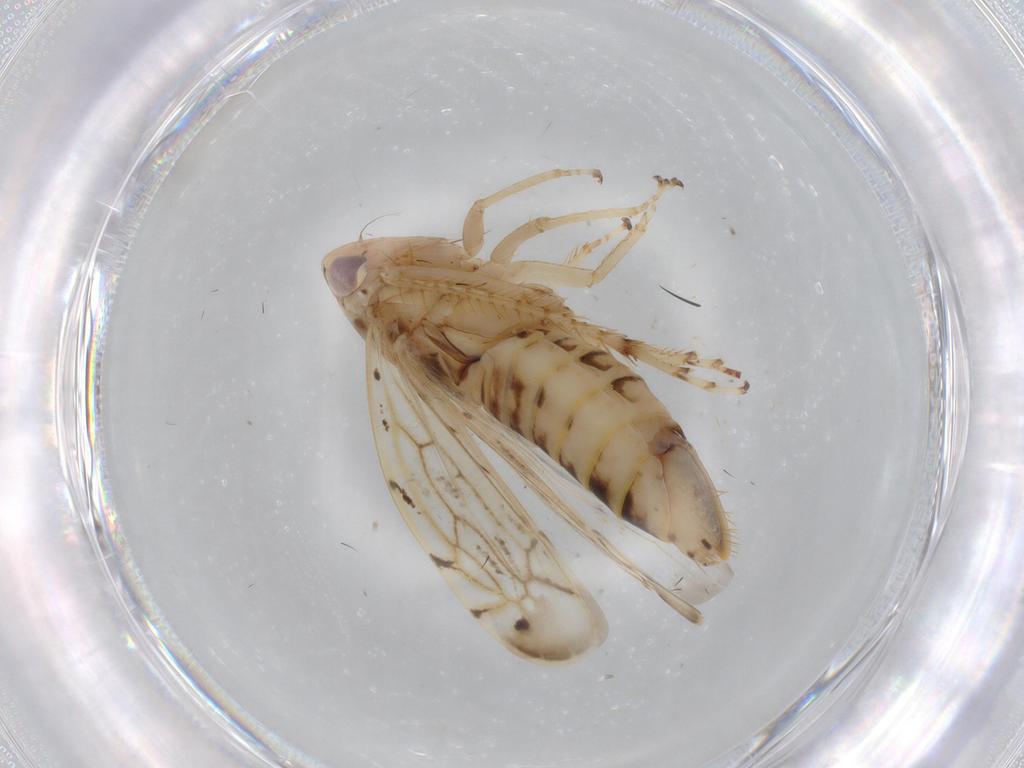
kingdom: Animalia
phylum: Arthropoda
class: Insecta
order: Hemiptera
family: Cicadellidae
